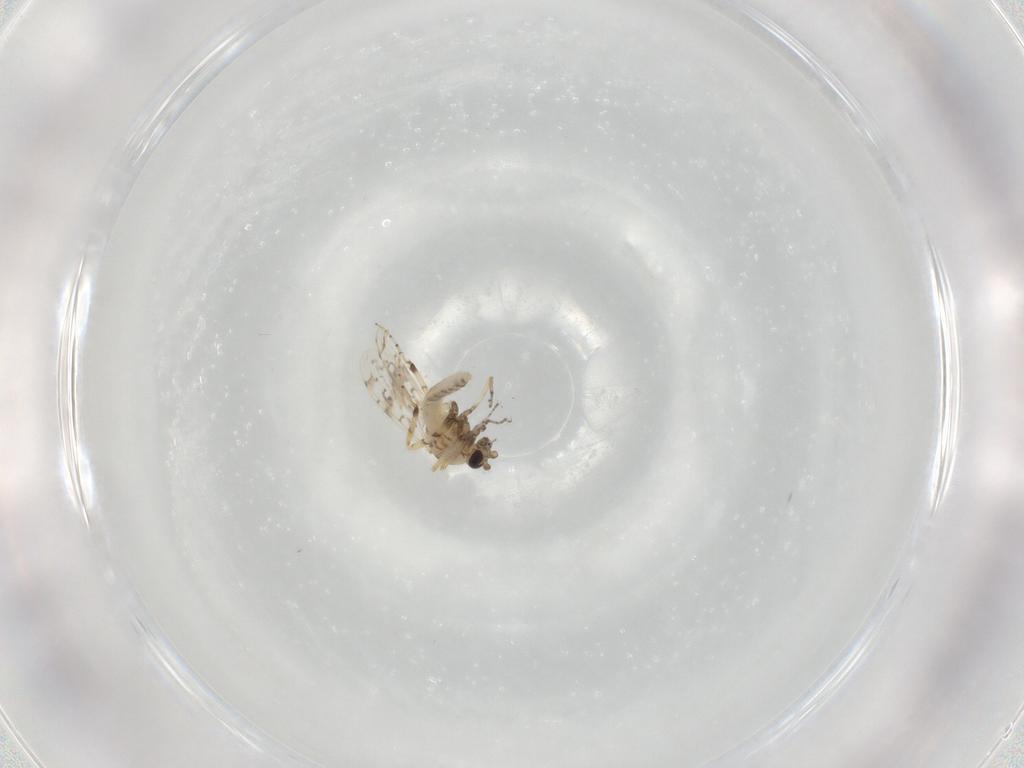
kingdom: Animalia
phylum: Arthropoda
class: Insecta
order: Diptera
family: Ceratopogonidae
